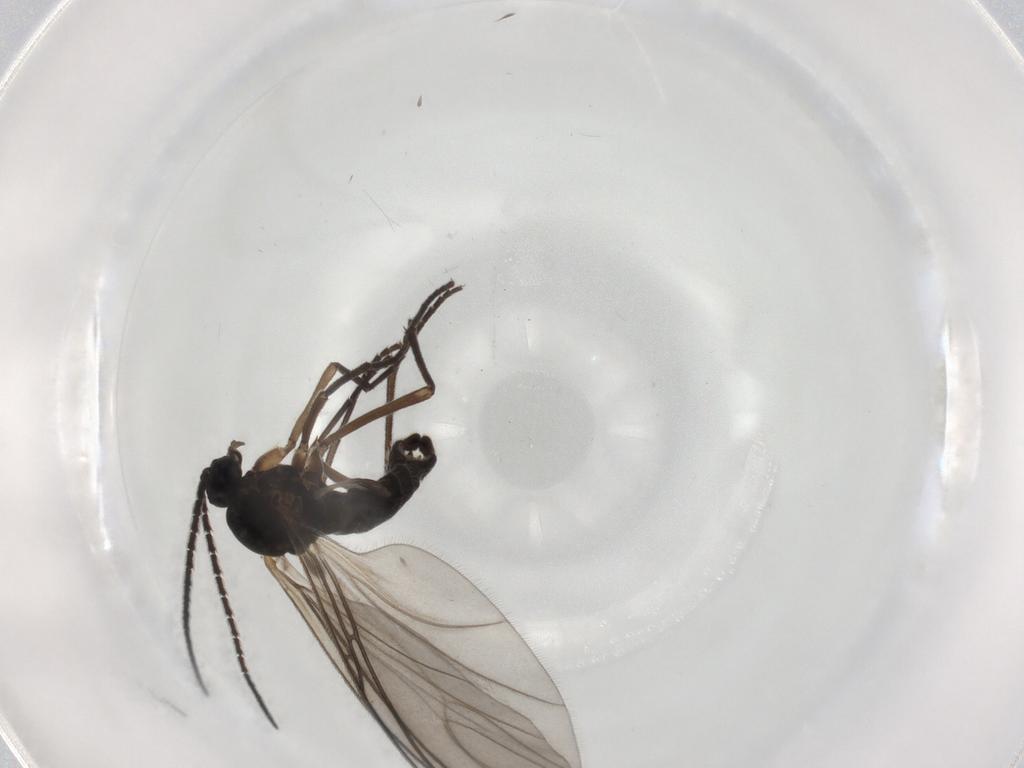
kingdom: Animalia
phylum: Arthropoda
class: Insecta
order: Diptera
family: Sciaridae
